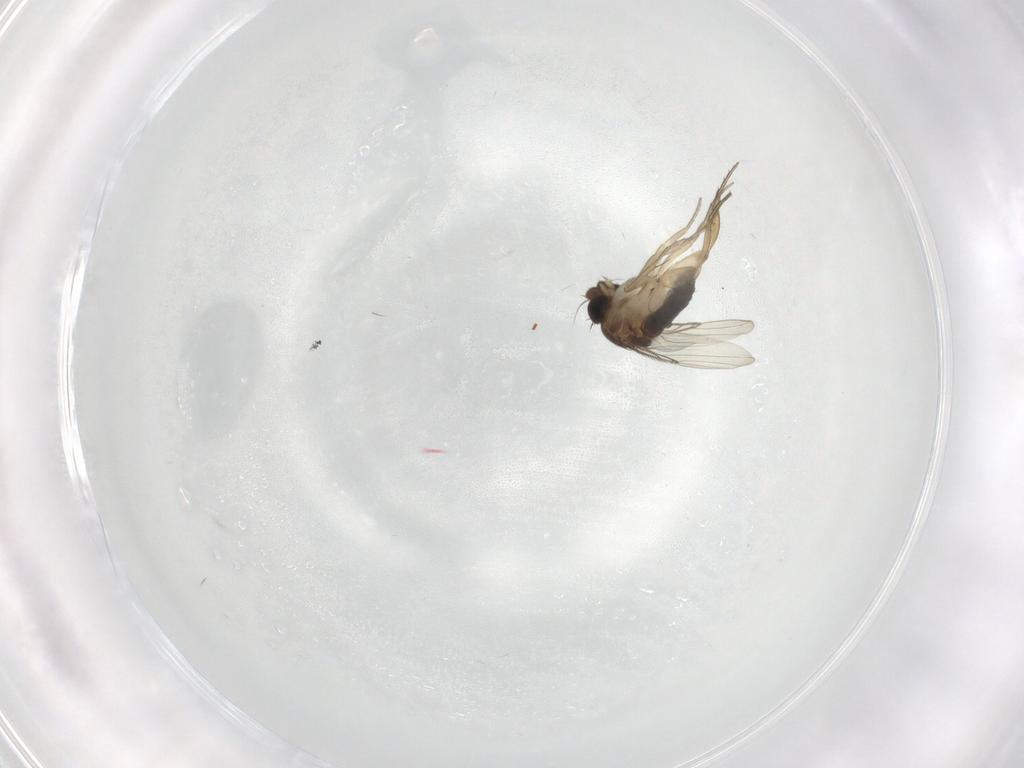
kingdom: Animalia
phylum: Arthropoda
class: Insecta
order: Diptera
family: Phoridae
